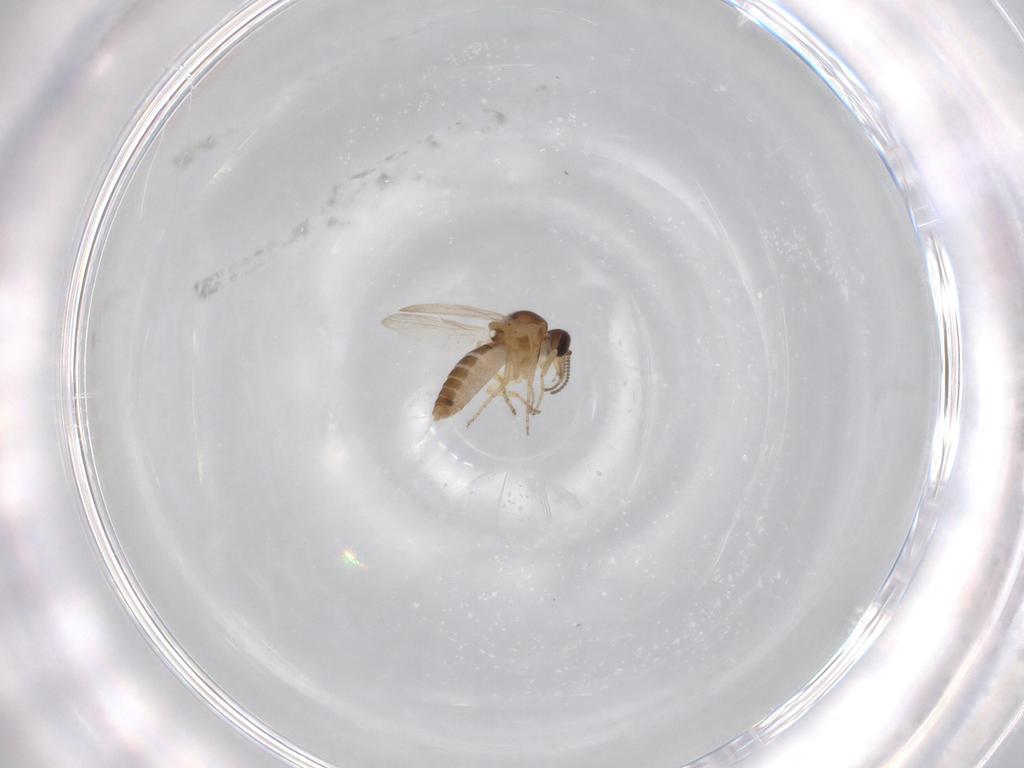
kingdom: Animalia
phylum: Arthropoda
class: Insecta
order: Diptera
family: Ceratopogonidae
